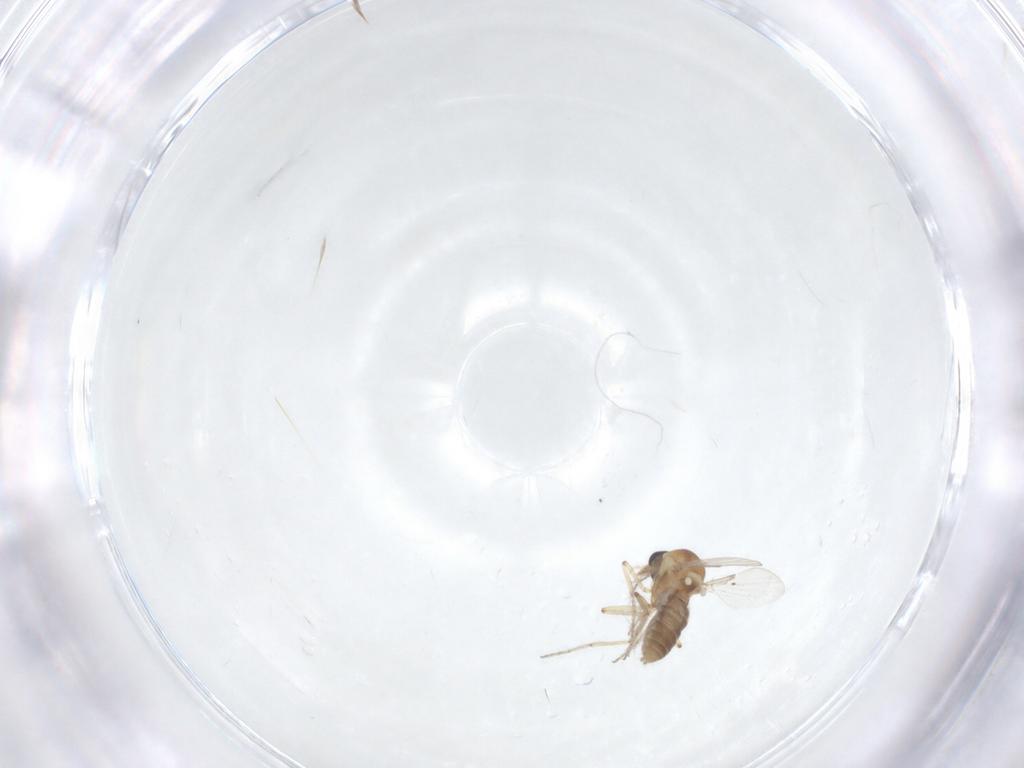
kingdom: Animalia
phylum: Arthropoda
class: Insecta
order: Diptera
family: Ceratopogonidae
